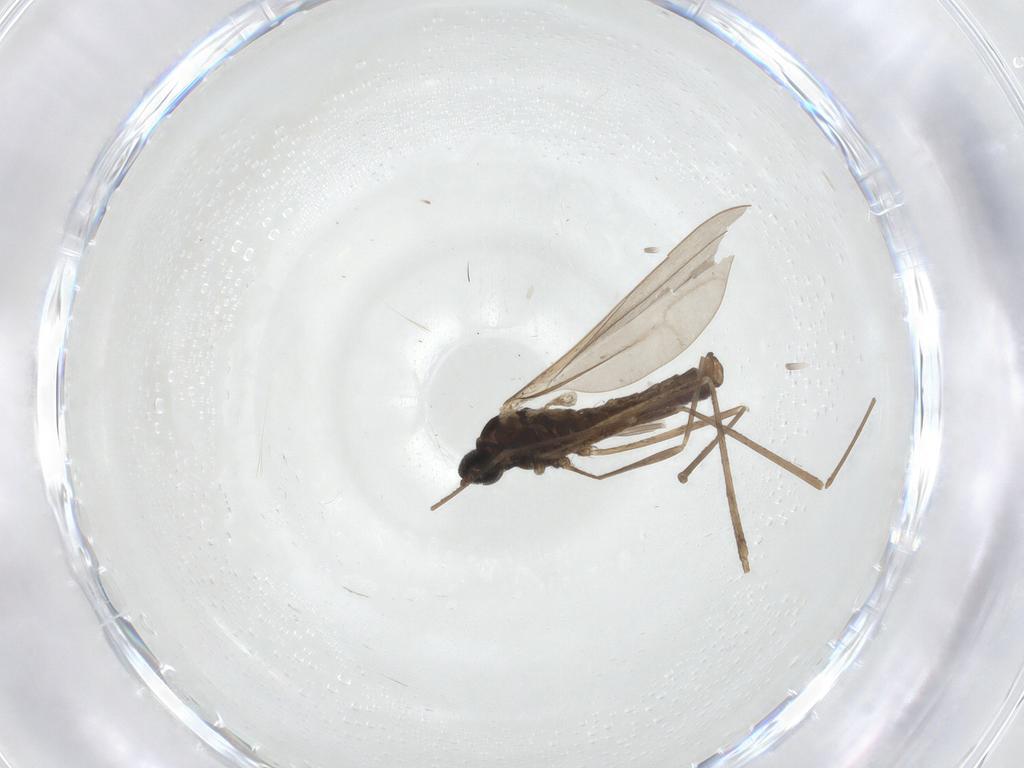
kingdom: Animalia
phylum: Arthropoda
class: Insecta
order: Diptera
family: Cecidomyiidae
